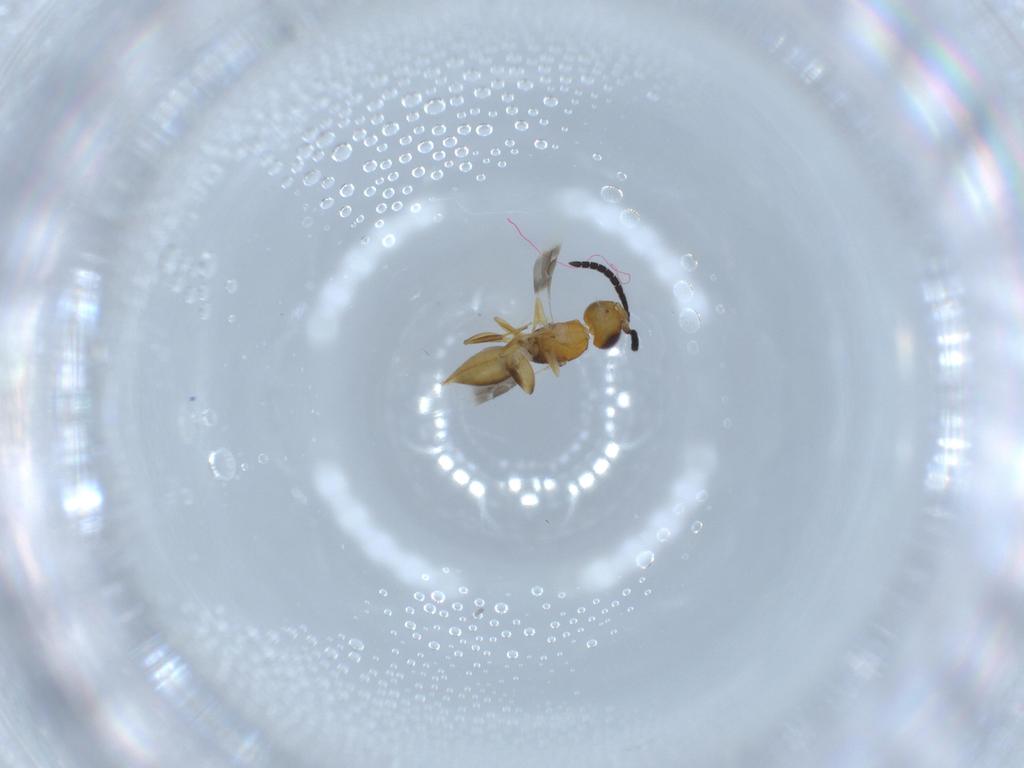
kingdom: Animalia
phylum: Arthropoda
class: Insecta
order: Hymenoptera
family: Megaspilidae
